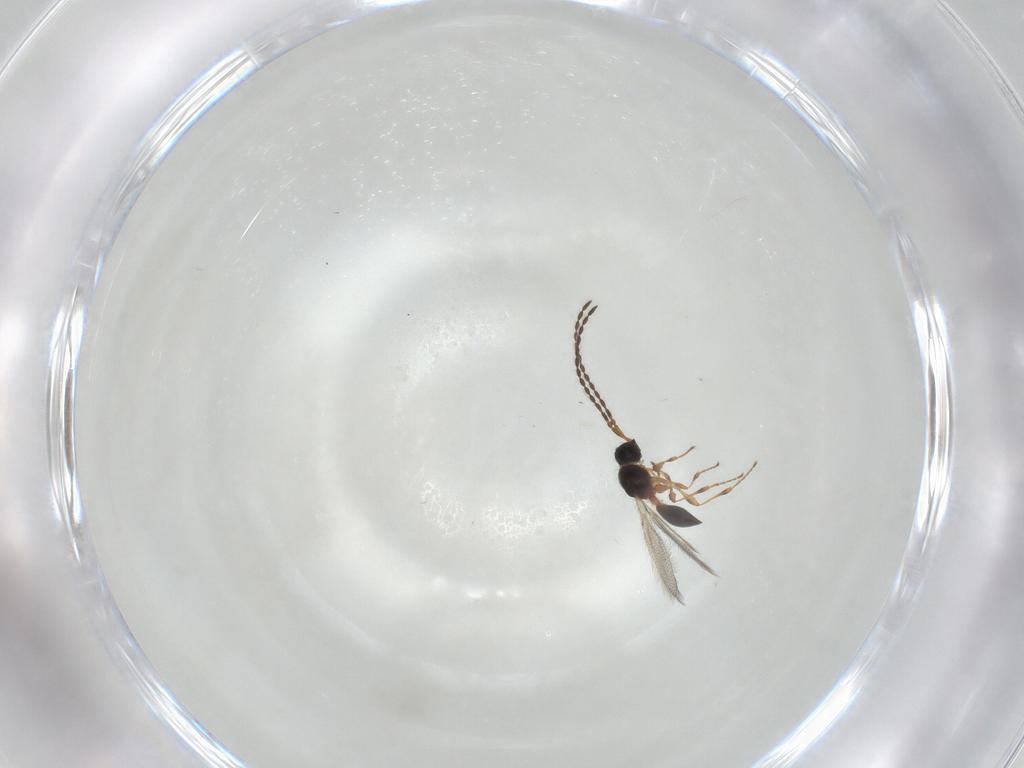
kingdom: Animalia
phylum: Arthropoda
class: Insecta
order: Hymenoptera
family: Diapriidae
